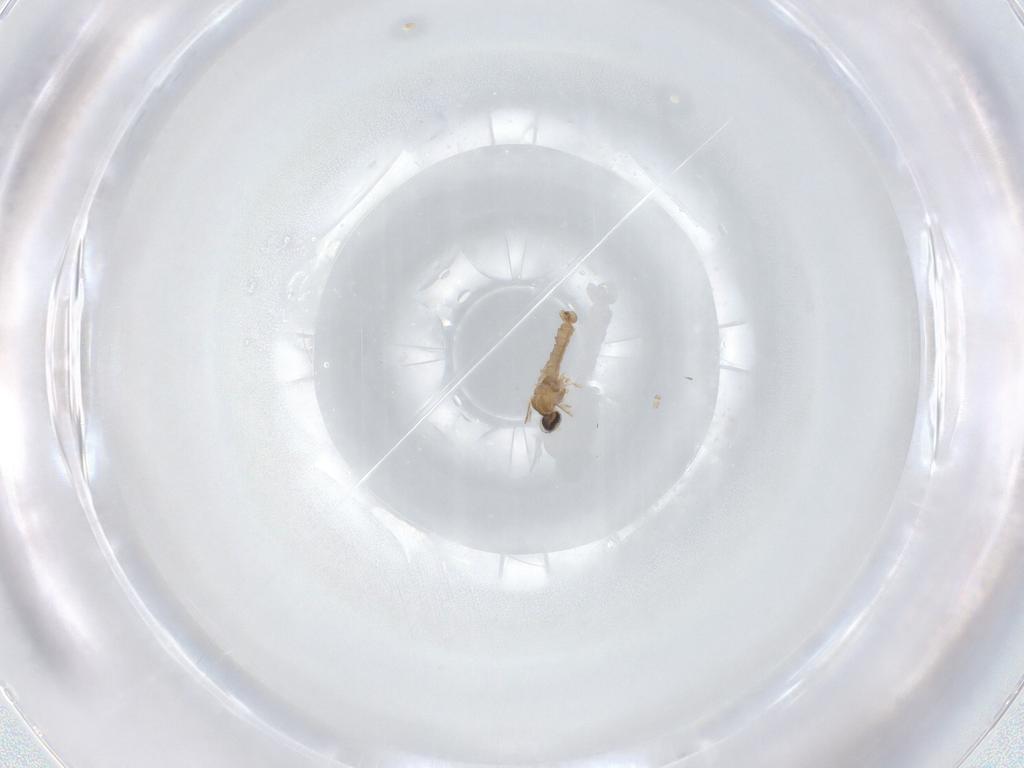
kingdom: Animalia
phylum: Arthropoda
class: Insecta
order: Diptera
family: Cecidomyiidae
